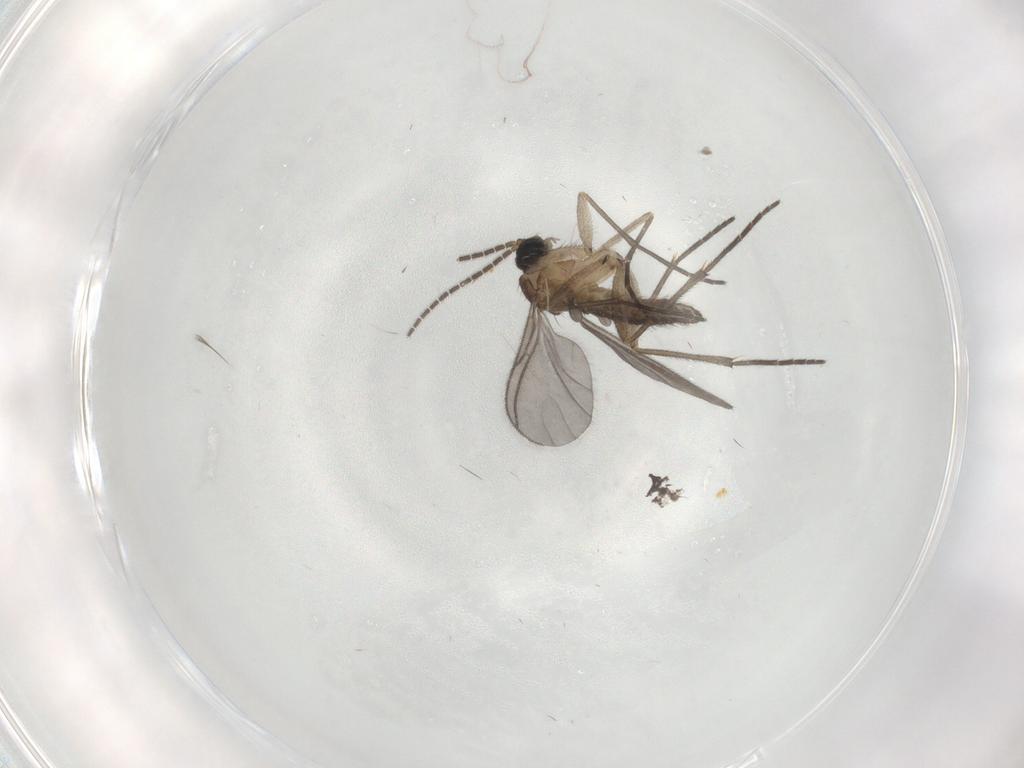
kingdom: Animalia
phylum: Arthropoda
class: Insecta
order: Diptera
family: Sciaridae
